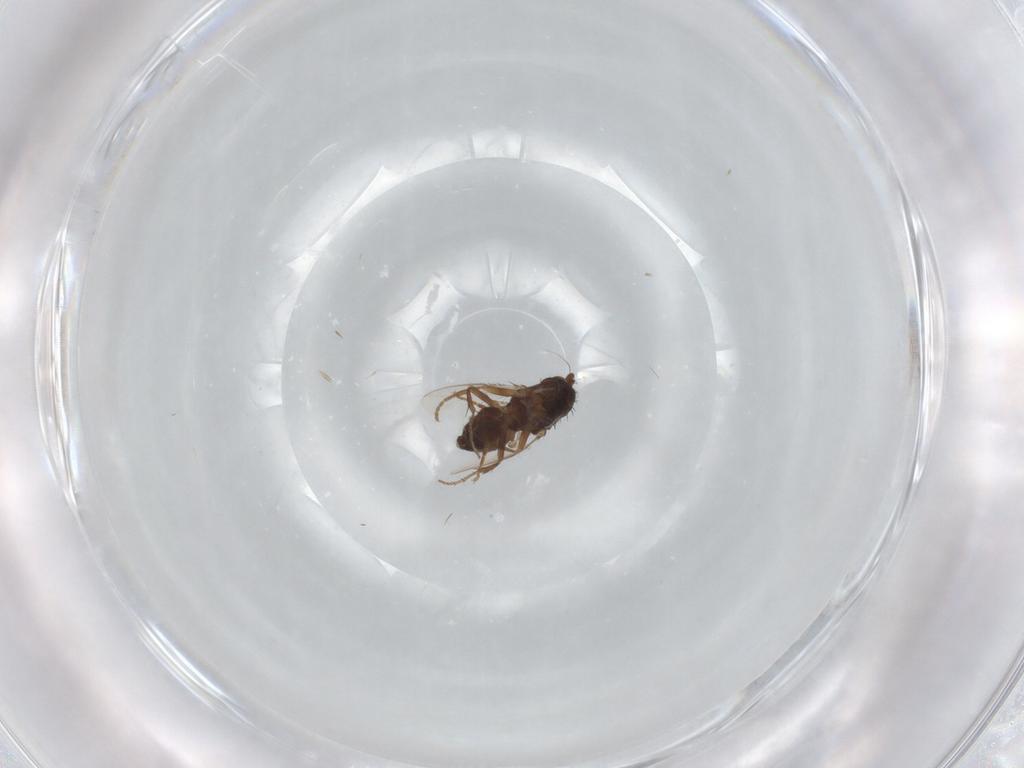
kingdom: Animalia
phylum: Arthropoda
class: Insecta
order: Diptera
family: Sphaeroceridae
